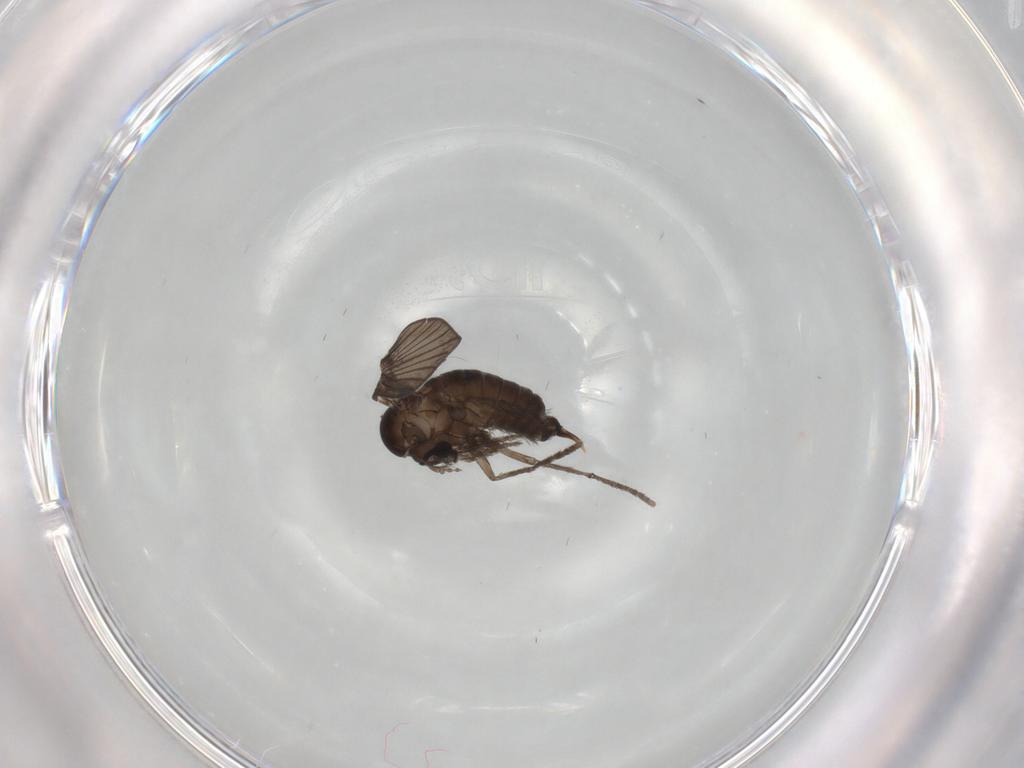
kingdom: Animalia
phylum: Arthropoda
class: Insecta
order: Diptera
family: Psychodidae
